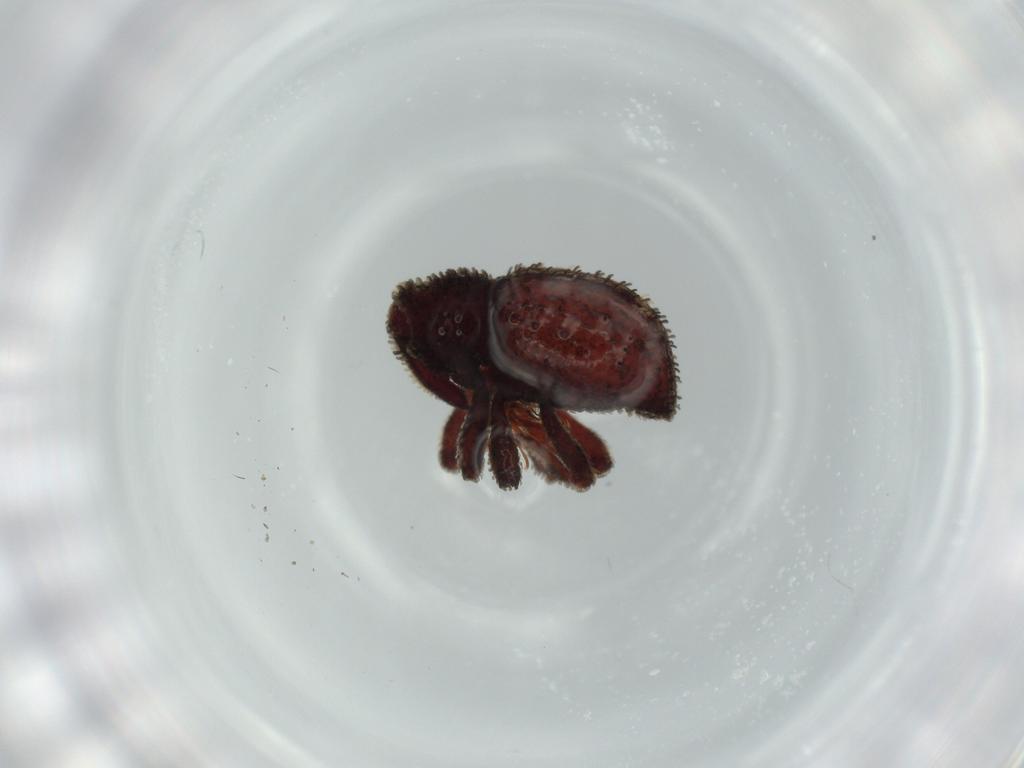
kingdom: Animalia
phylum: Arthropoda
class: Insecta
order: Coleoptera
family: Curculionidae
